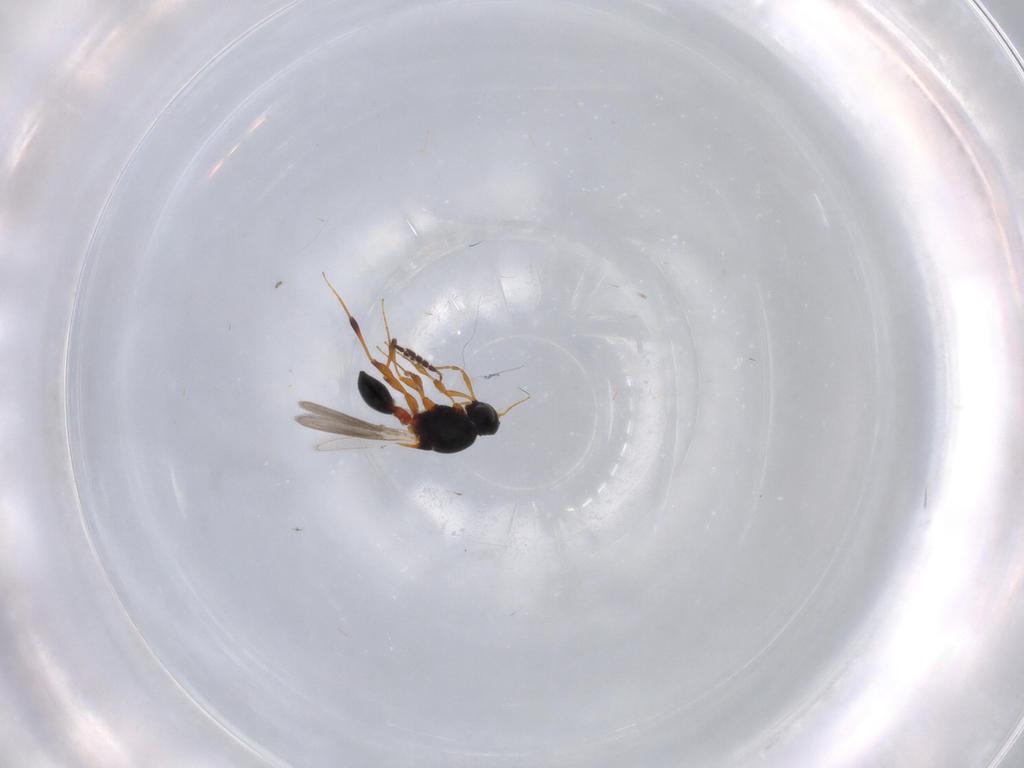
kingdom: Animalia
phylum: Arthropoda
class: Insecta
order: Hymenoptera
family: Platygastridae
